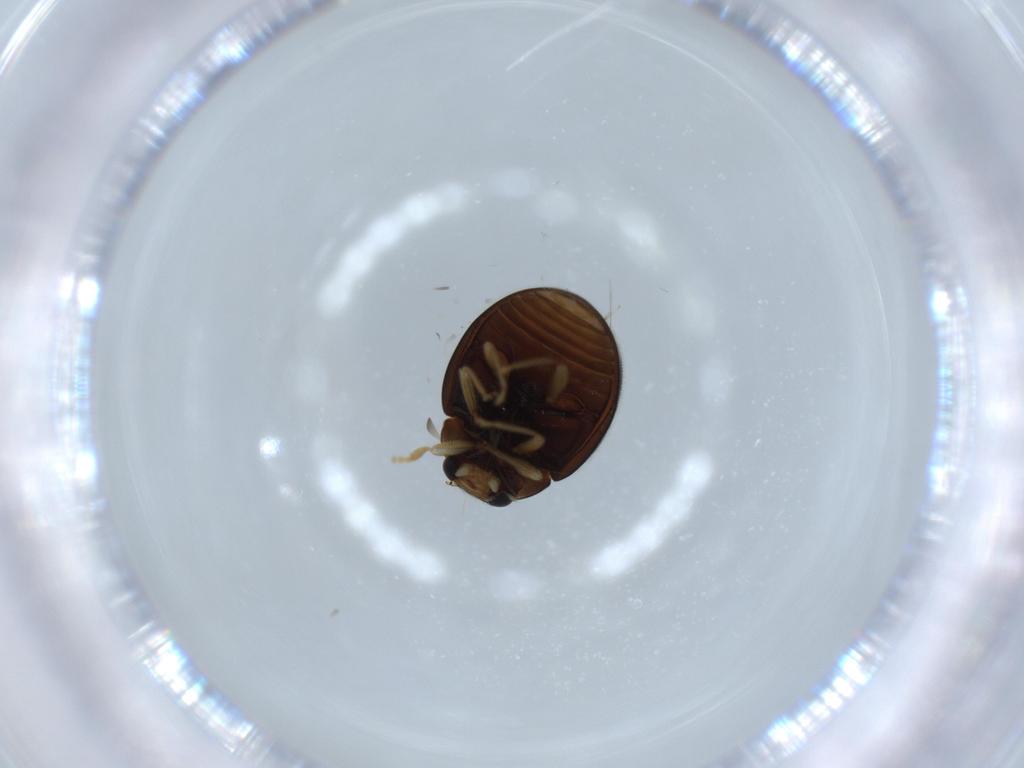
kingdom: Animalia
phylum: Arthropoda
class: Insecta
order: Coleoptera
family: Coccinellidae
